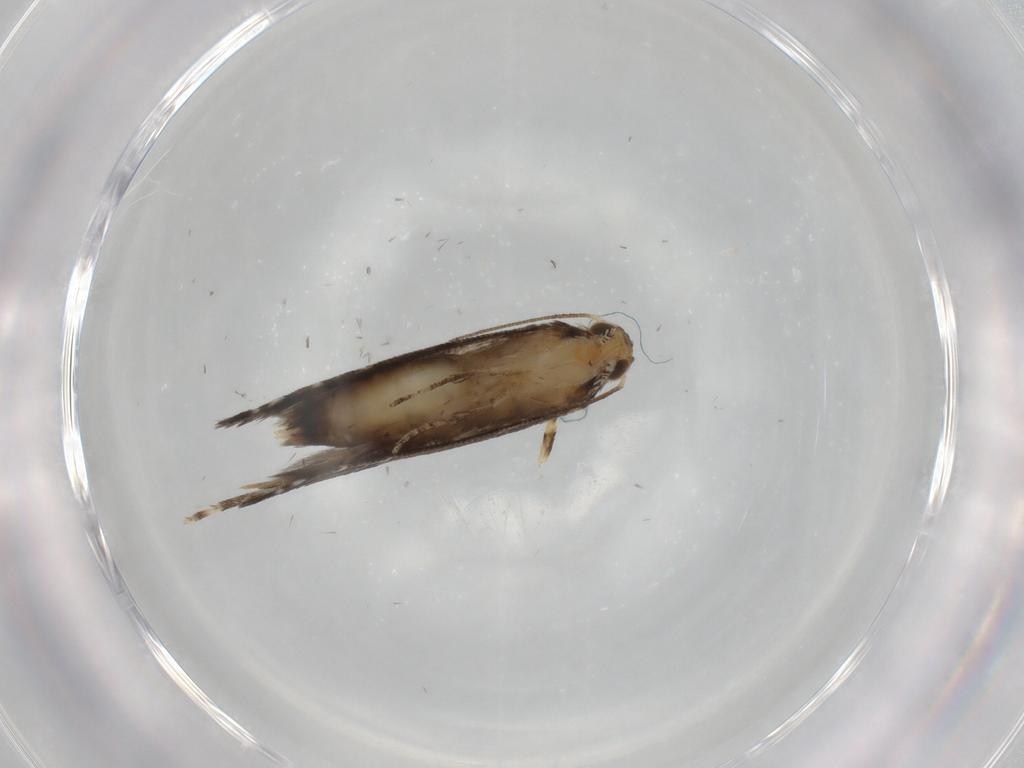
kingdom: Animalia
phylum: Arthropoda
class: Insecta
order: Lepidoptera
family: Glyphipterigidae
